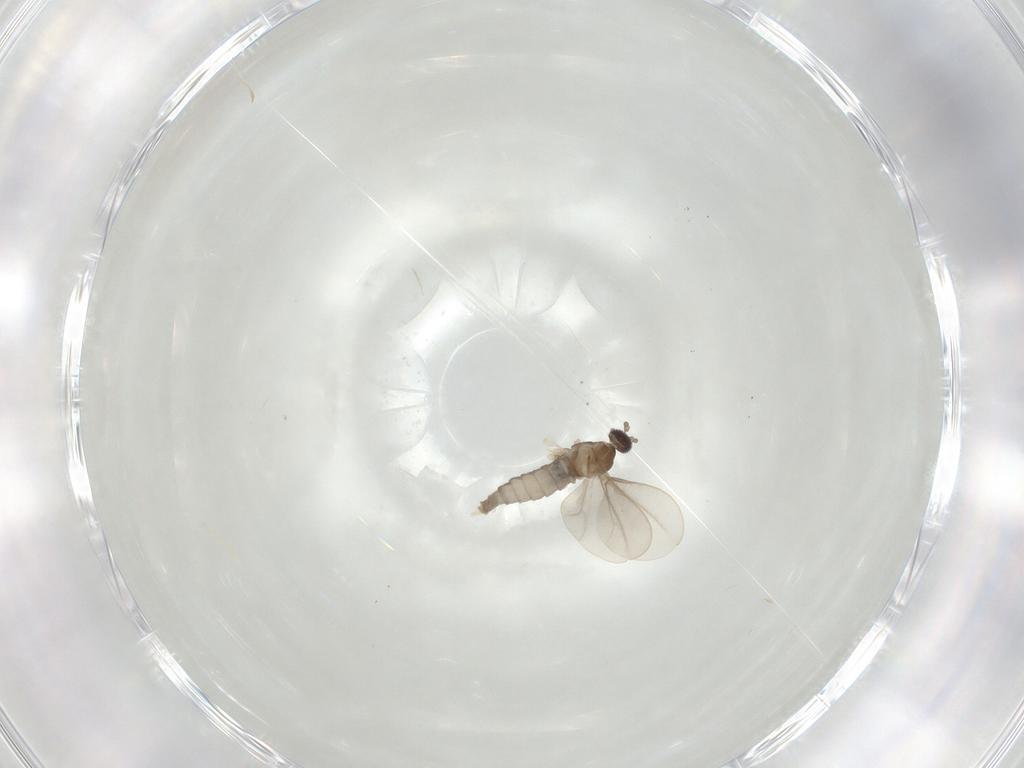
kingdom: Animalia
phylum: Arthropoda
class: Insecta
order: Diptera
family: Cecidomyiidae
